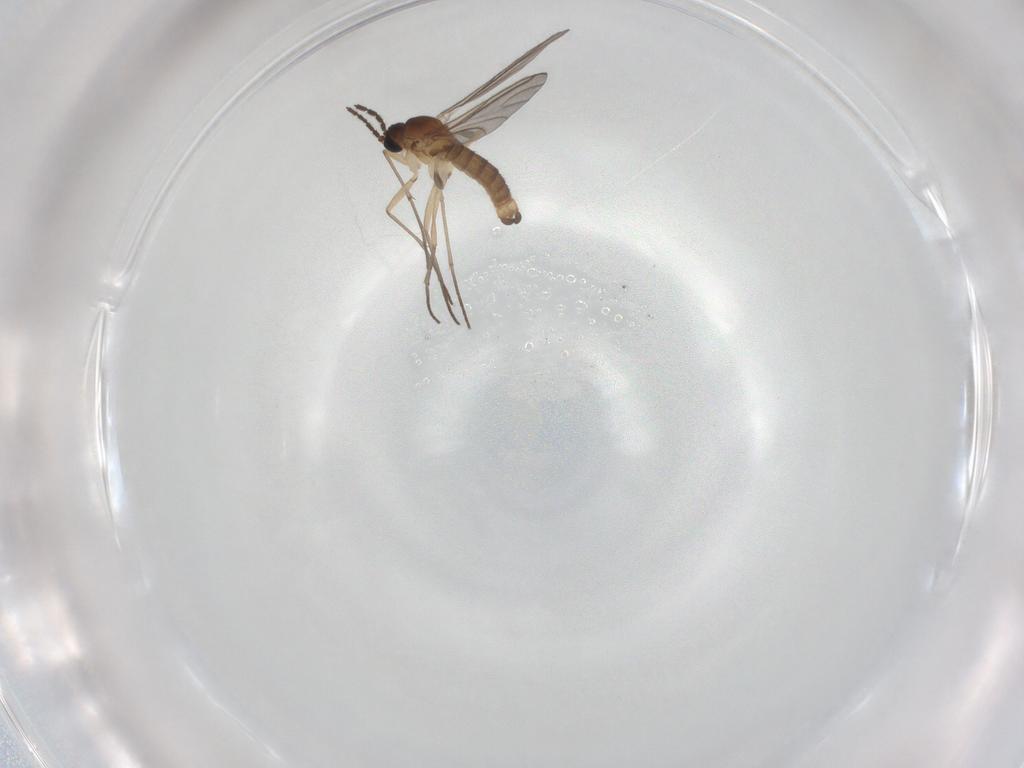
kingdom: Animalia
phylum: Arthropoda
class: Insecta
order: Diptera
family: Sciaridae
